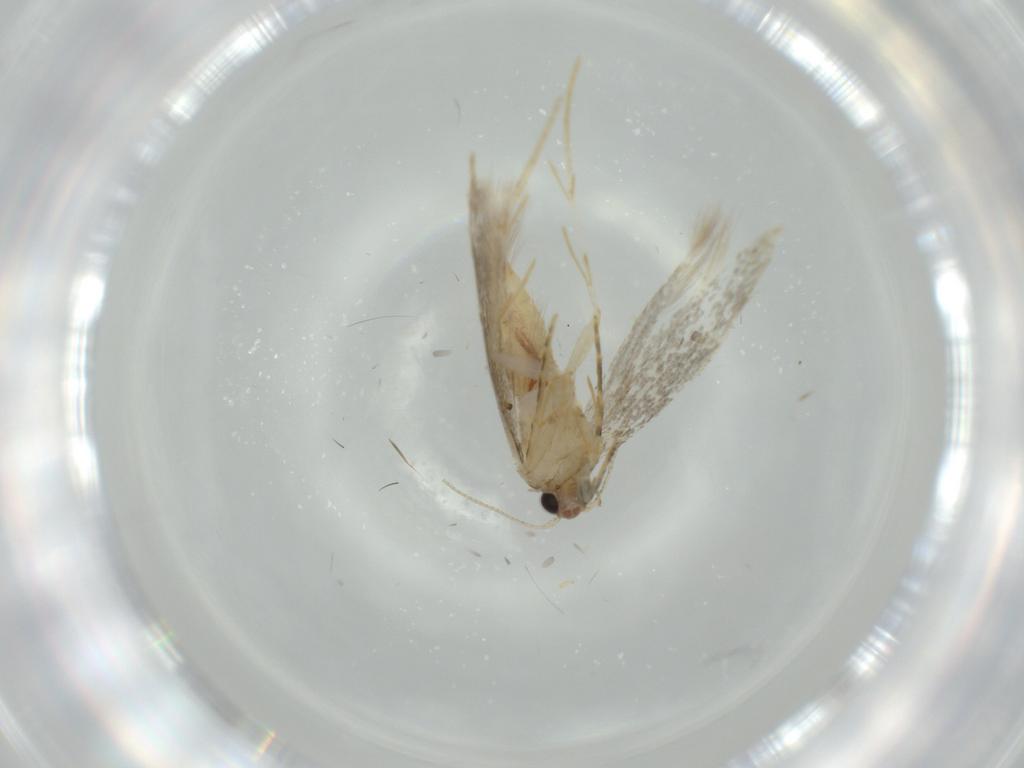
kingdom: Animalia
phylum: Arthropoda
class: Insecta
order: Lepidoptera
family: Tineidae
